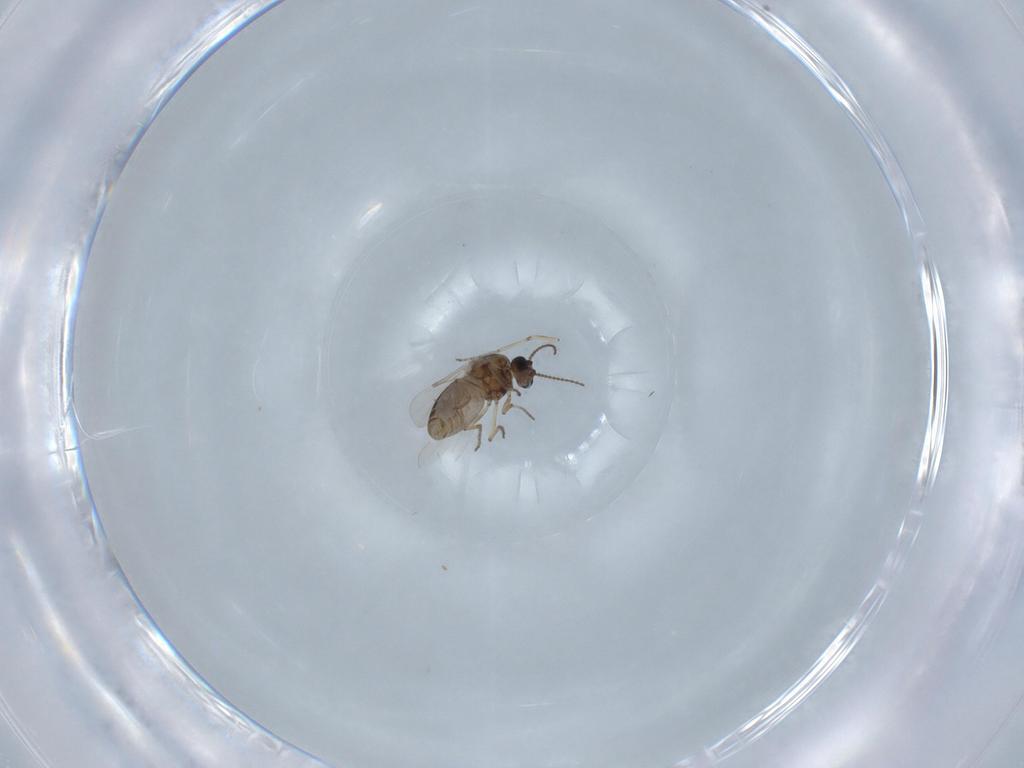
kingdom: Animalia
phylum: Arthropoda
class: Insecta
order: Diptera
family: Ceratopogonidae
